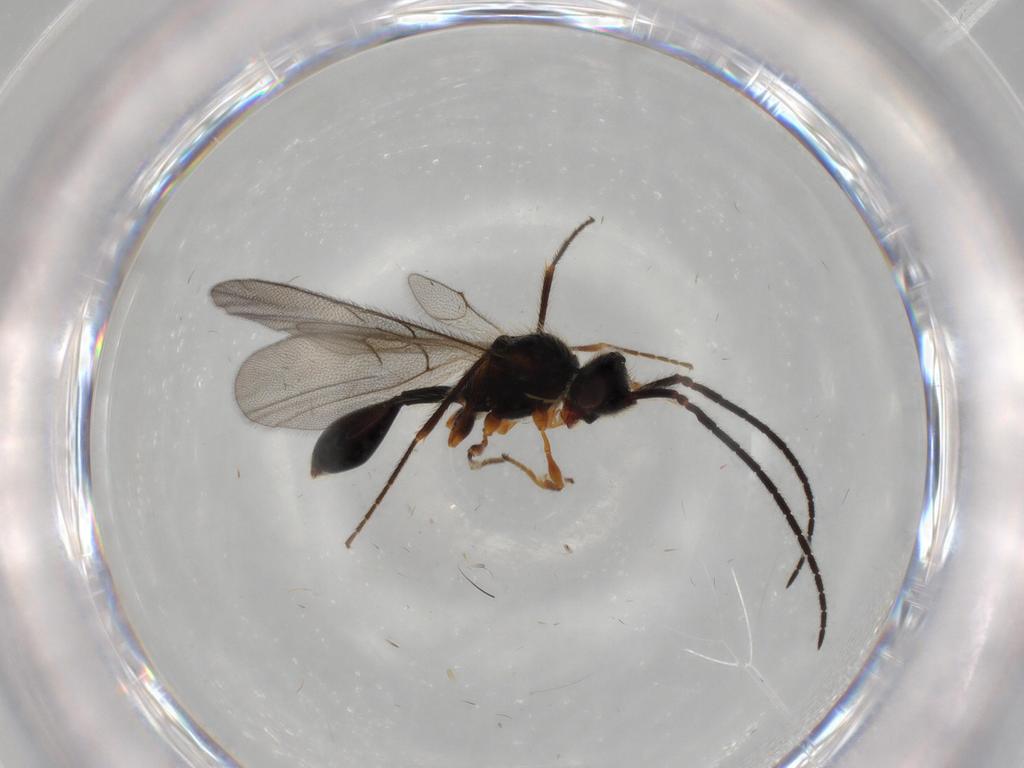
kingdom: Animalia
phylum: Arthropoda
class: Insecta
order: Hymenoptera
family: Diapriidae
